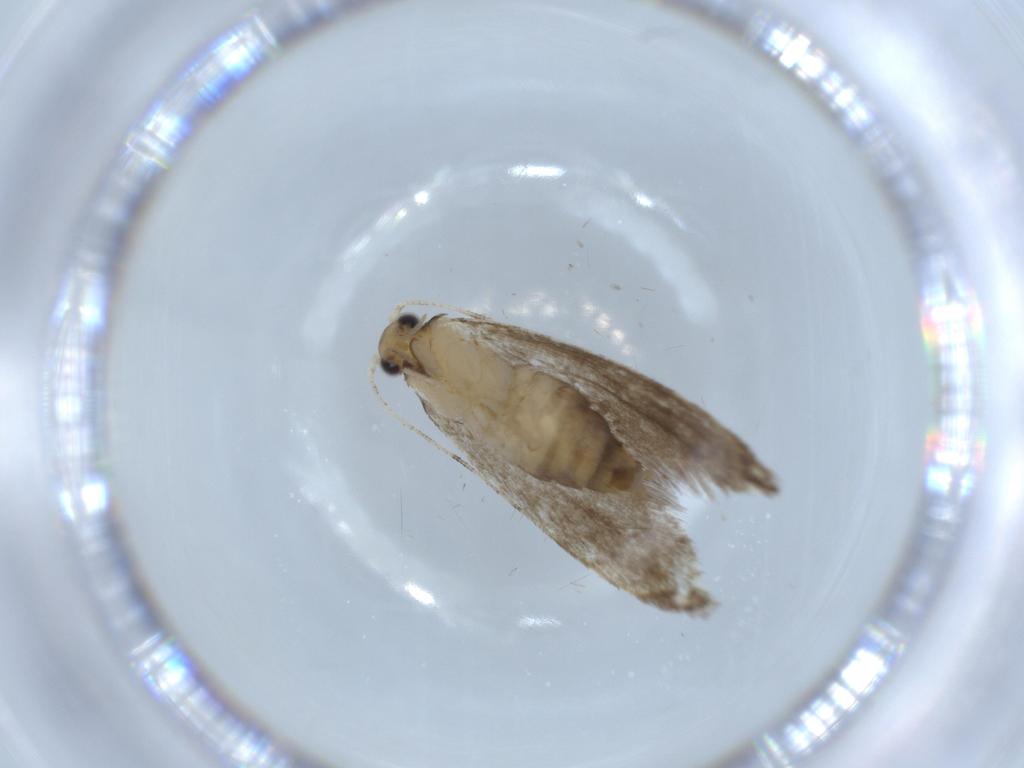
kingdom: Animalia
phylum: Arthropoda
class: Insecta
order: Lepidoptera
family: Tineidae
